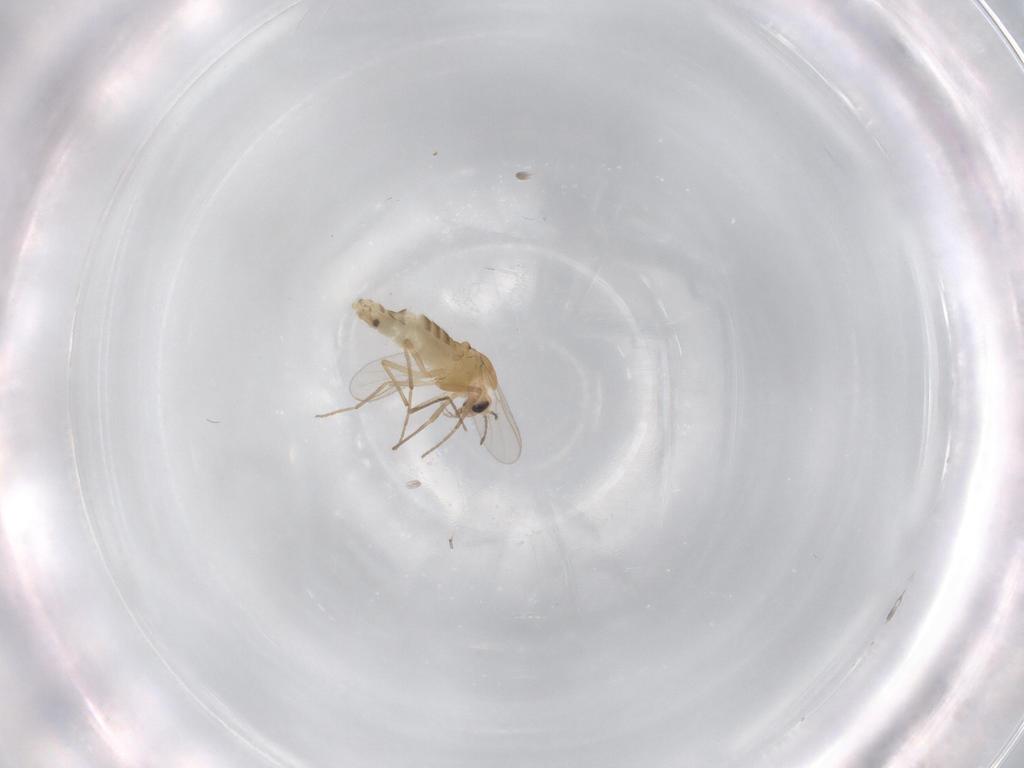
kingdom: Animalia
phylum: Arthropoda
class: Insecta
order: Diptera
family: Chironomidae
